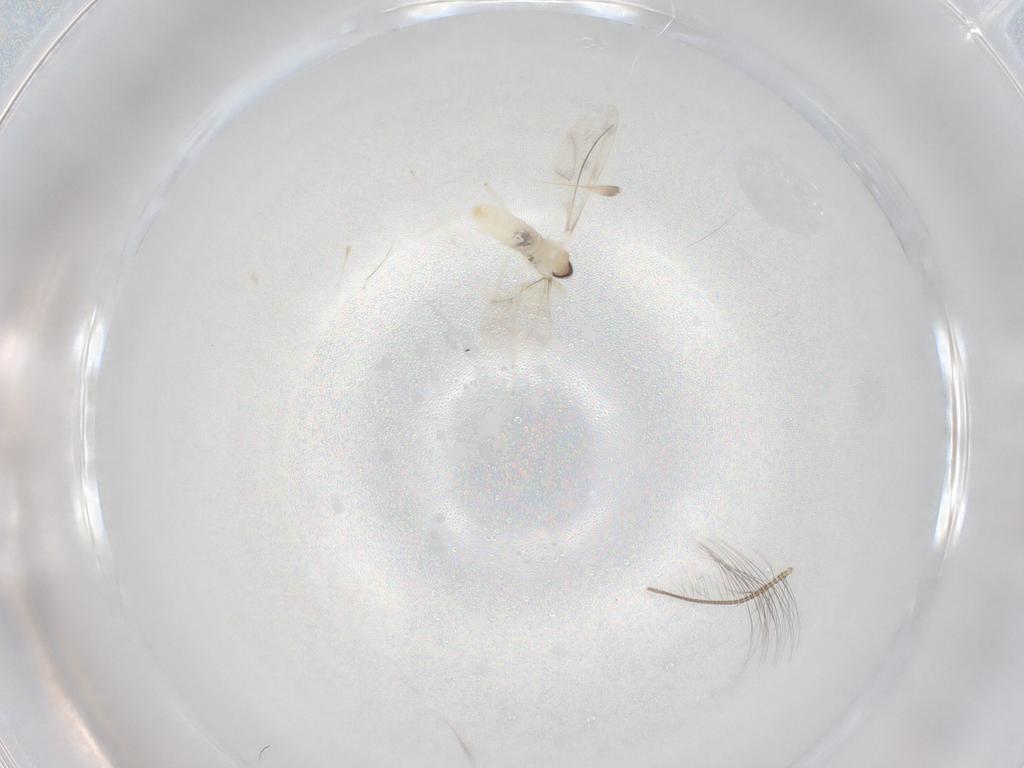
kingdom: Animalia
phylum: Arthropoda
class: Insecta
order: Diptera
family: Cecidomyiidae
